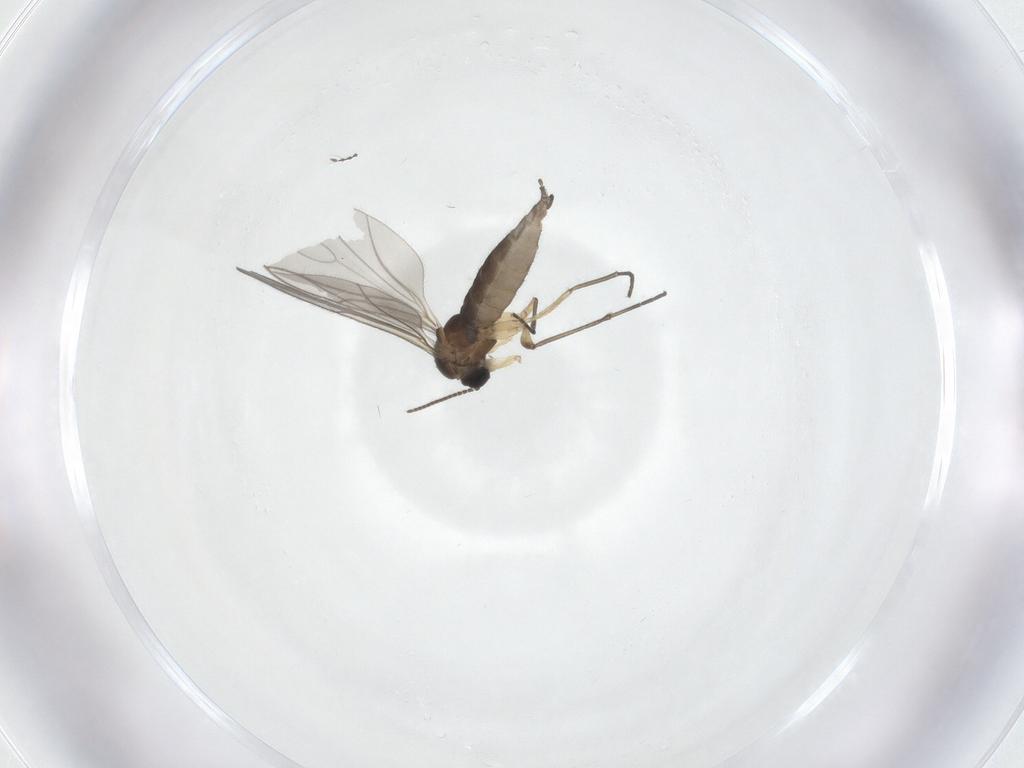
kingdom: Animalia
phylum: Arthropoda
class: Insecta
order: Diptera
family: Sciaridae
